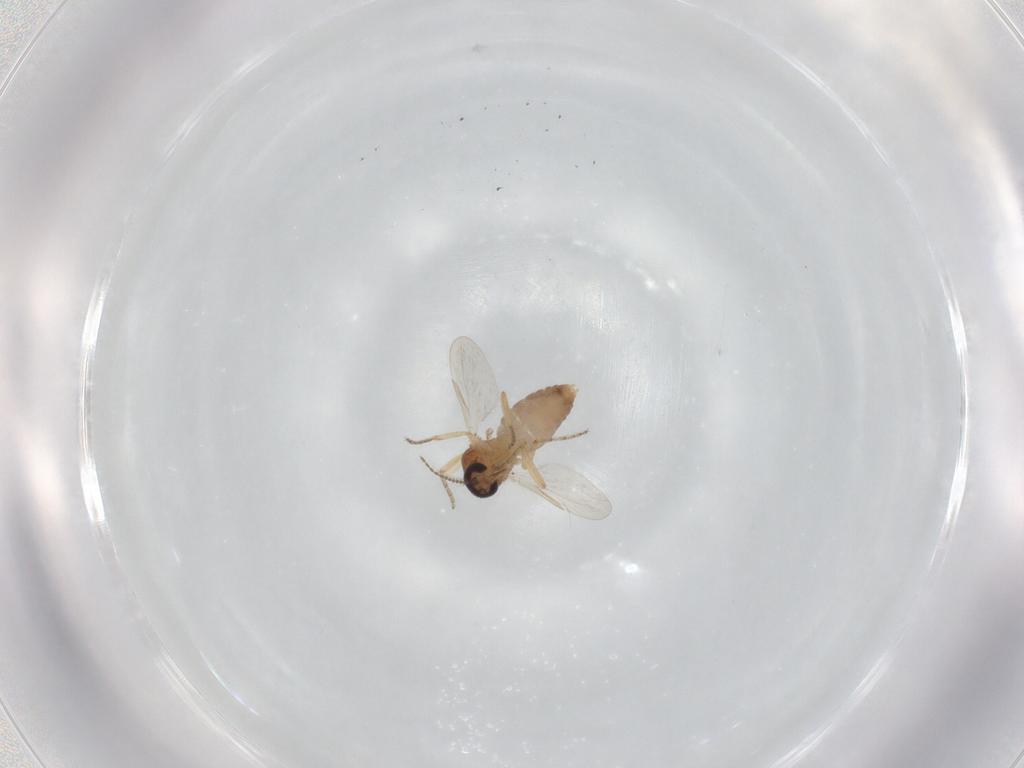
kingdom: Animalia
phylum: Arthropoda
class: Insecta
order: Diptera
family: Ceratopogonidae
